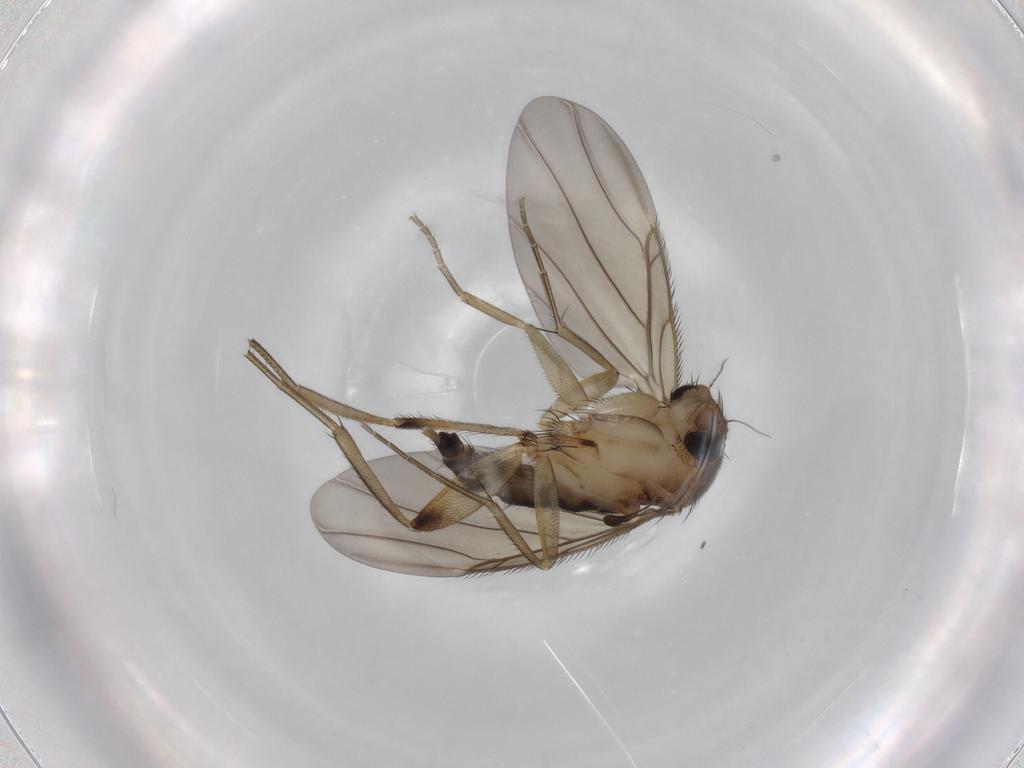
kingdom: Animalia
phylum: Arthropoda
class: Insecta
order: Diptera
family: Phoridae
